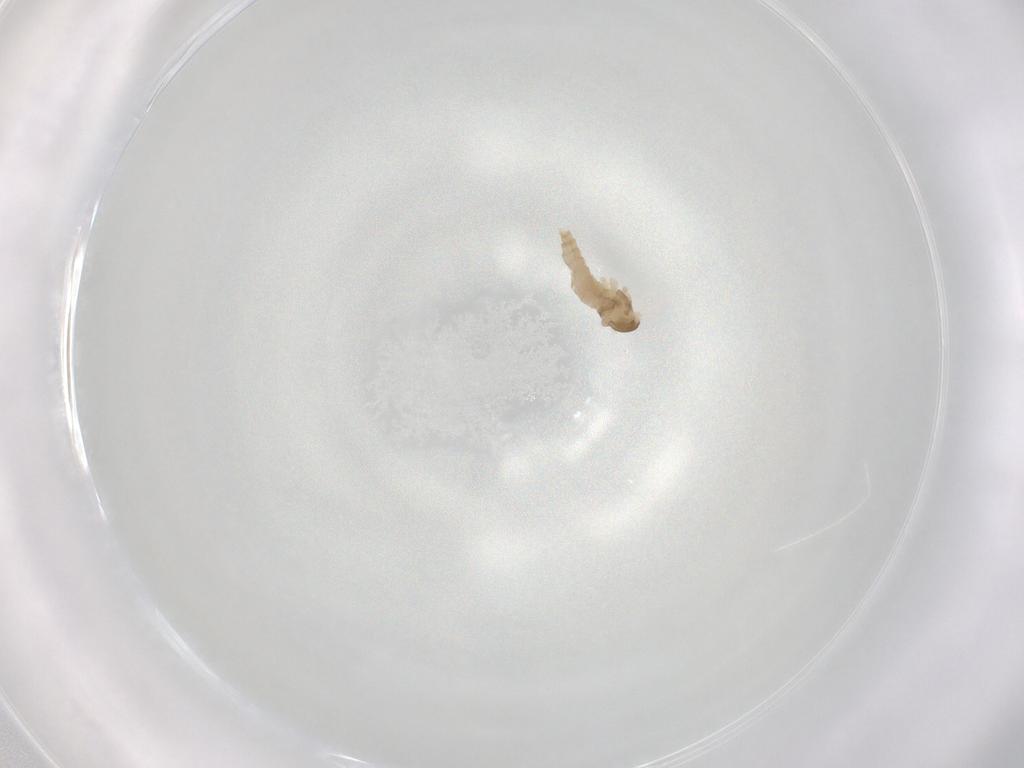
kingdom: Animalia
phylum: Arthropoda
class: Insecta
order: Diptera
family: Cecidomyiidae
